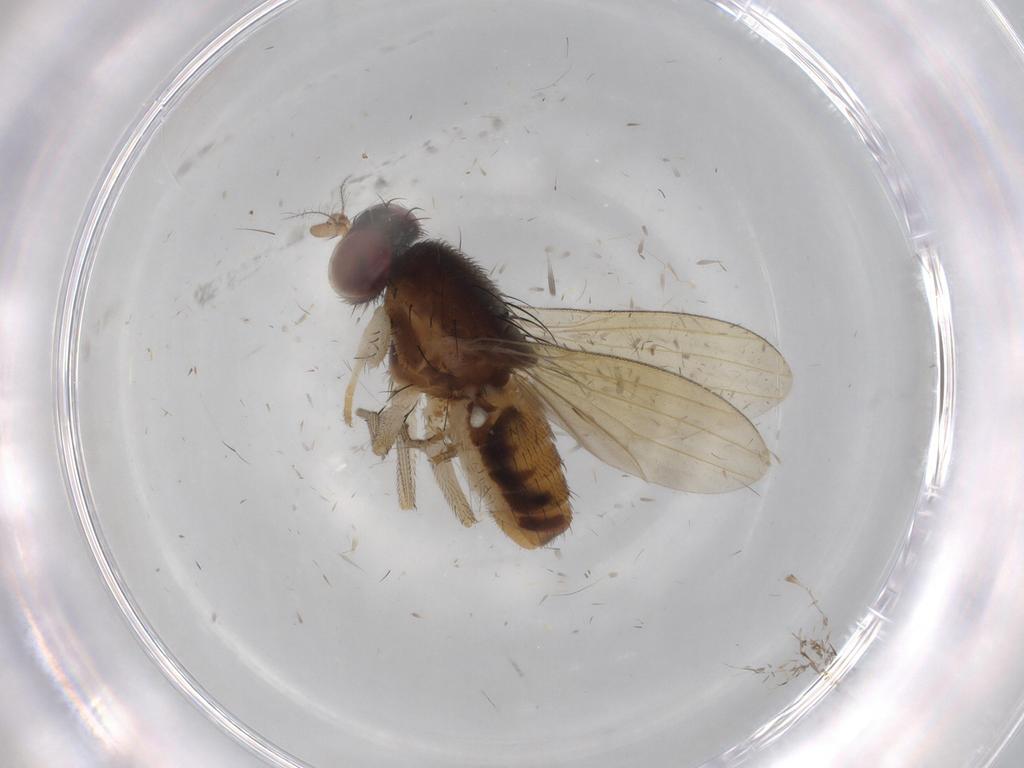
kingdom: Animalia
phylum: Arthropoda
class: Insecta
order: Diptera
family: Keroplatidae
